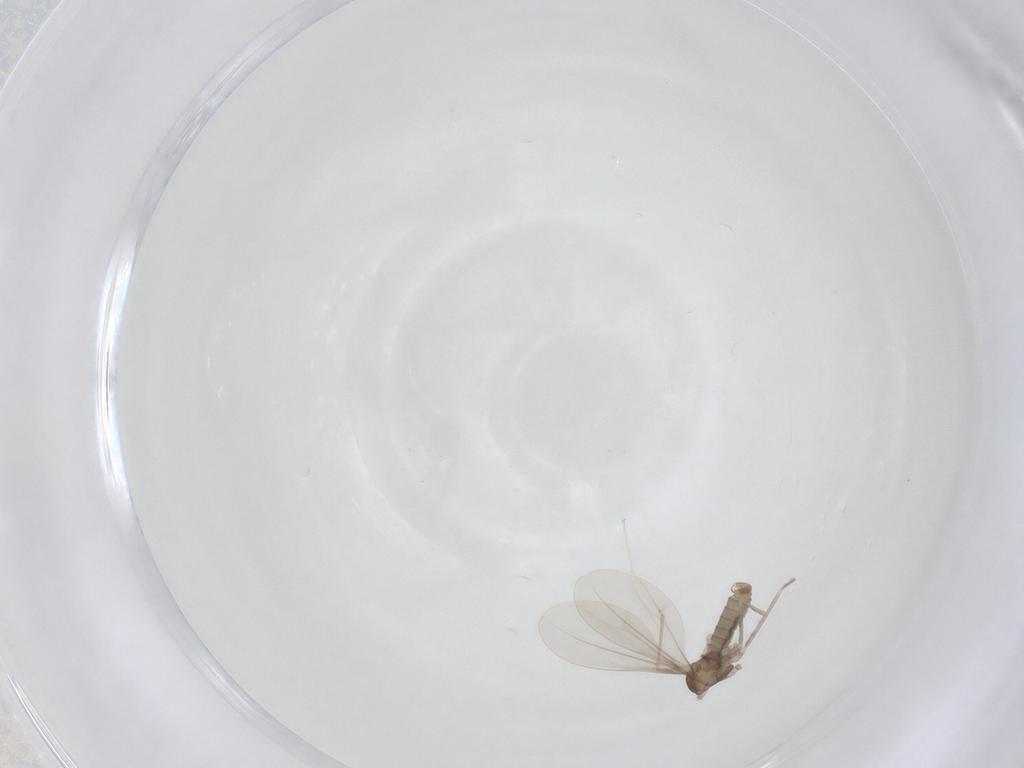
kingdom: Animalia
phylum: Arthropoda
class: Insecta
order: Diptera
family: Cecidomyiidae
